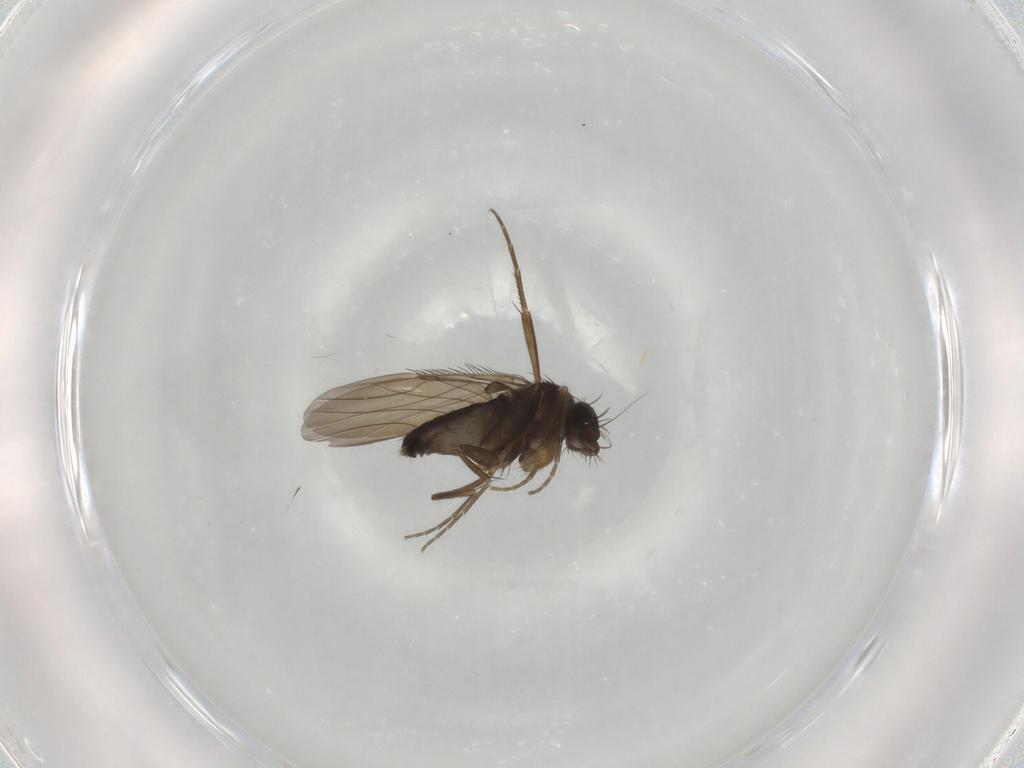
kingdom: Animalia
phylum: Arthropoda
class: Insecta
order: Diptera
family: Phoridae
